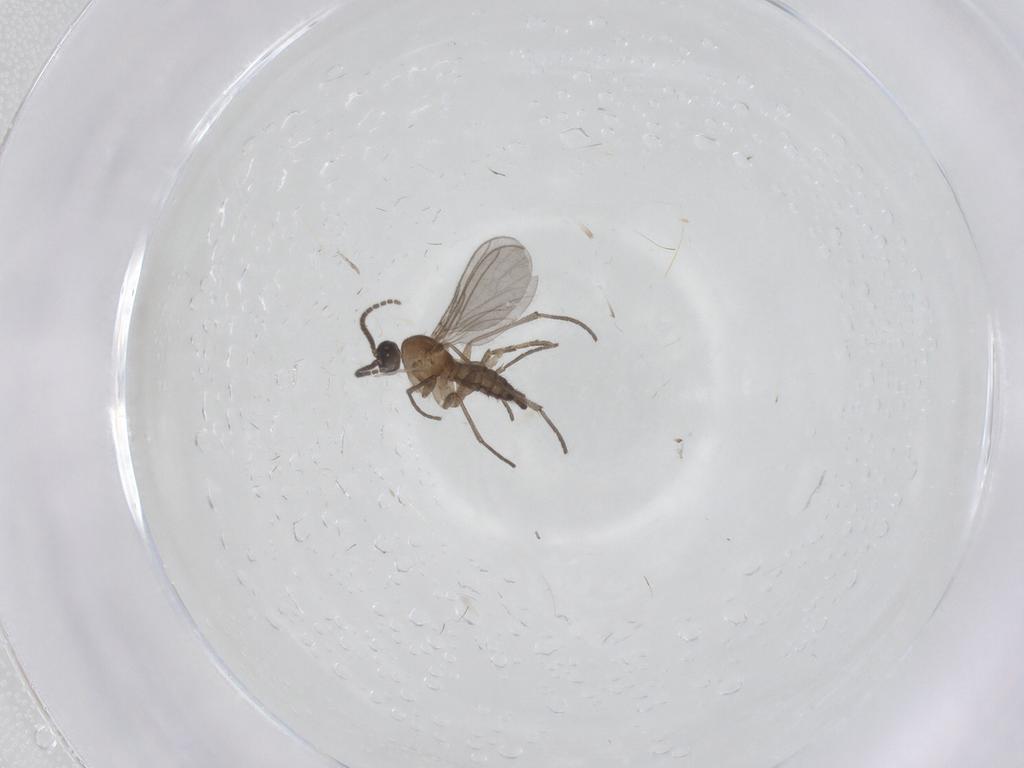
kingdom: Animalia
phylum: Arthropoda
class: Insecta
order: Diptera
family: Sciaridae
